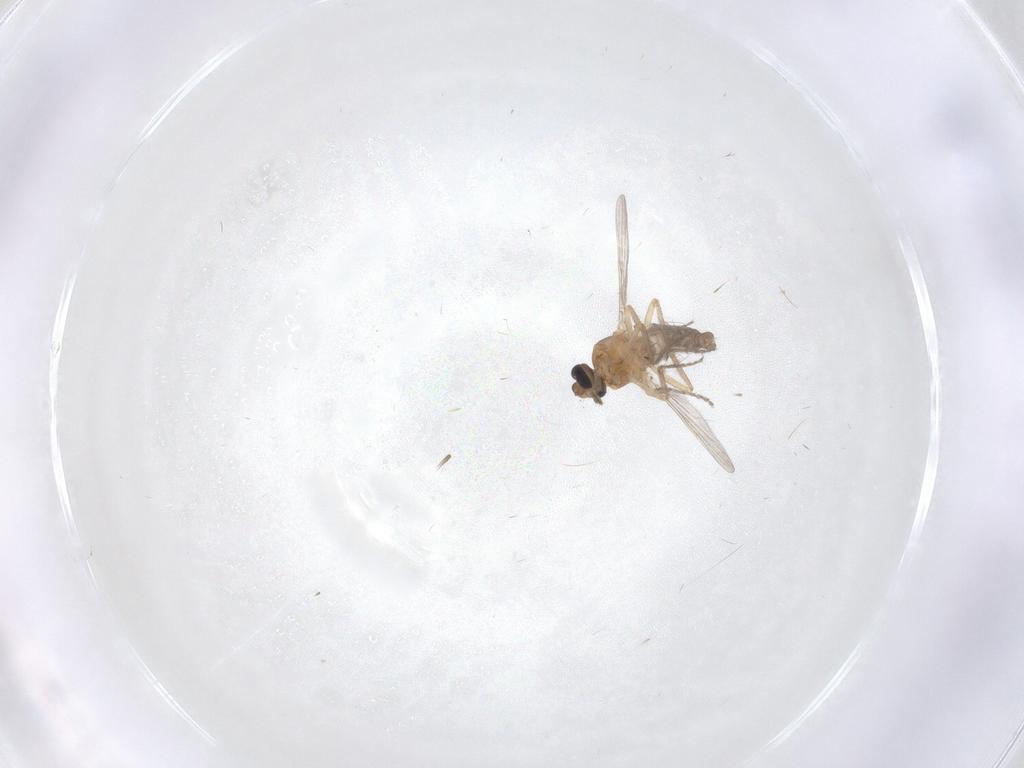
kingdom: Animalia
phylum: Arthropoda
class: Insecta
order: Diptera
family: Ceratopogonidae
